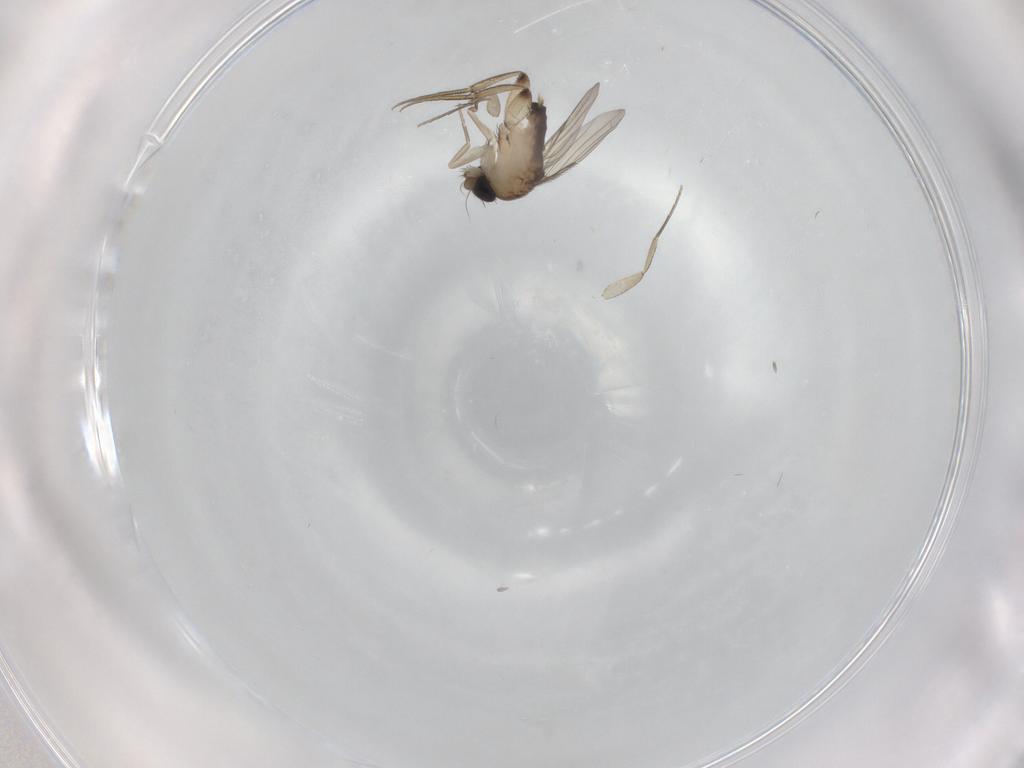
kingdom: Animalia
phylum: Arthropoda
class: Insecta
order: Diptera
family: Phoridae
